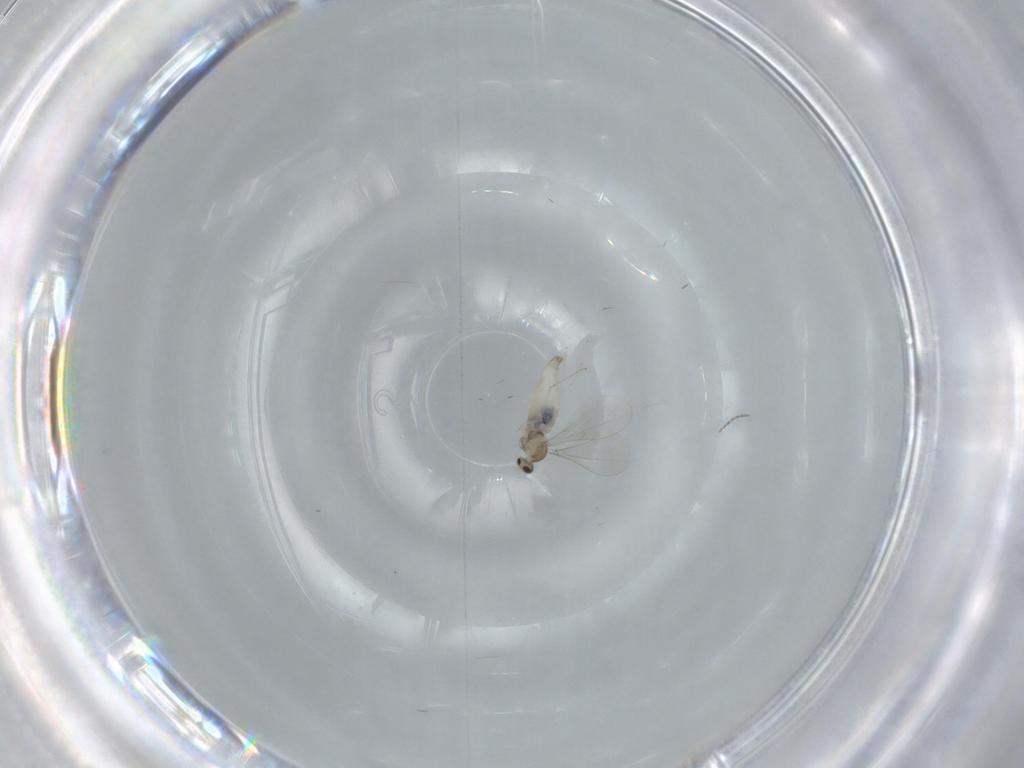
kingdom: Animalia
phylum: Arthropoda
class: Insecta
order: Diptera
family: Cecidomyiidae
